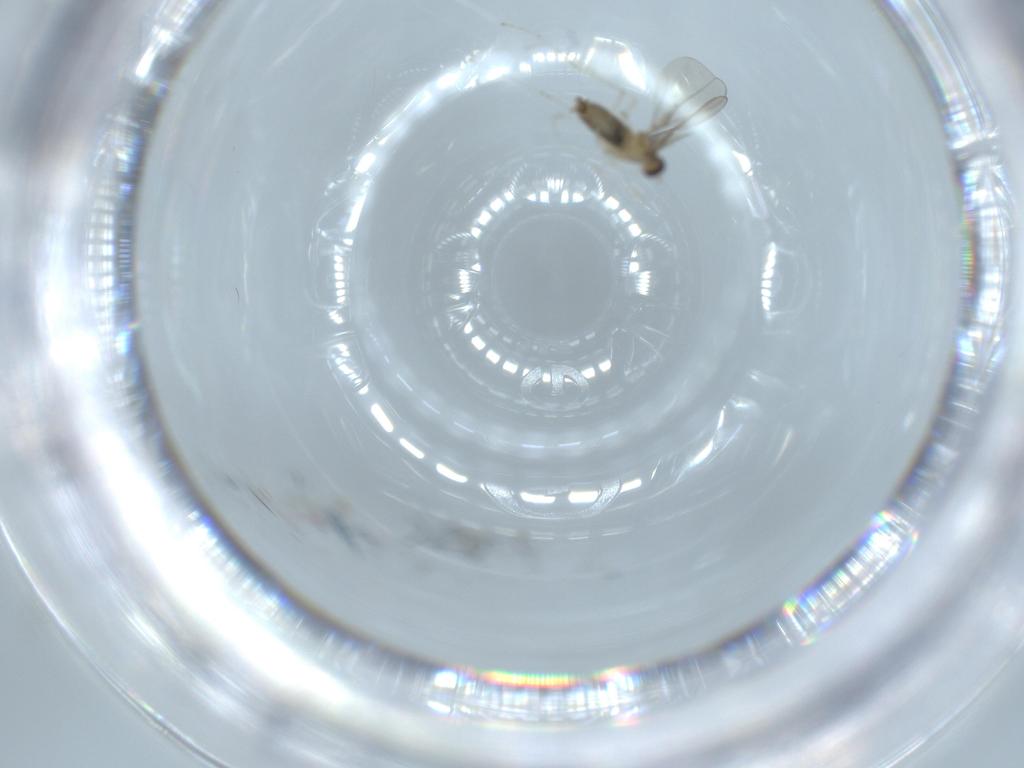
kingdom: Animalia
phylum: Arthropoda
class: Insecta
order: Diptera
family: Cecidomyiidae
